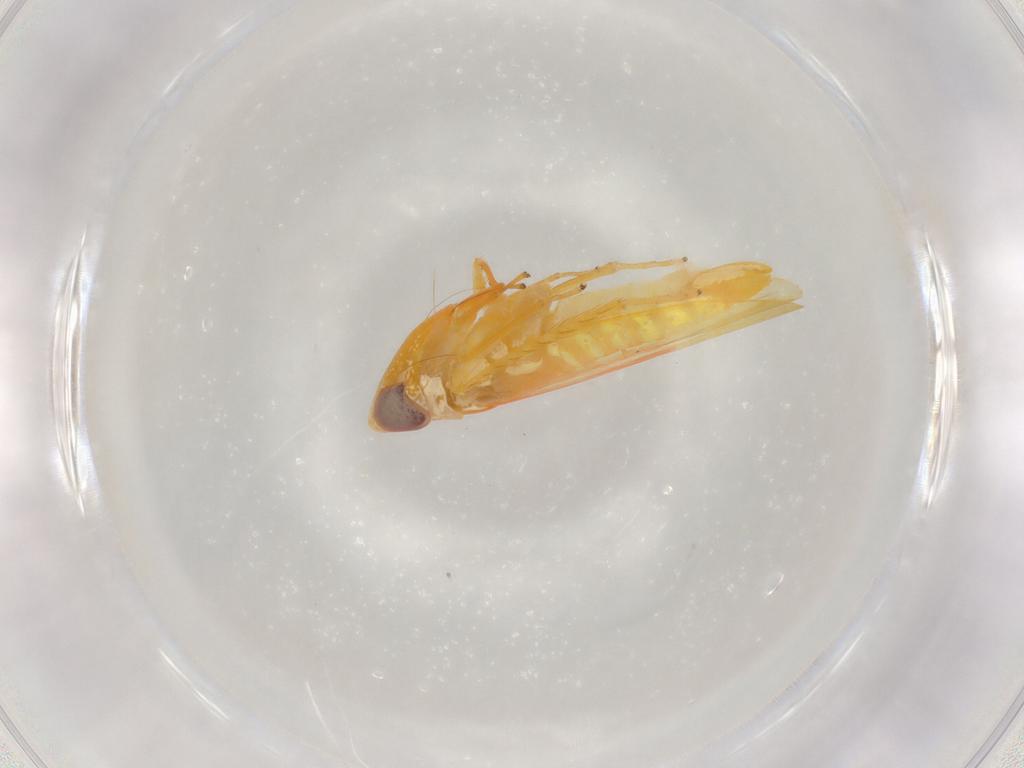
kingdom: Animalia
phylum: Arthropoda
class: Insecta
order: Hemiptera
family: Cicadellidae
